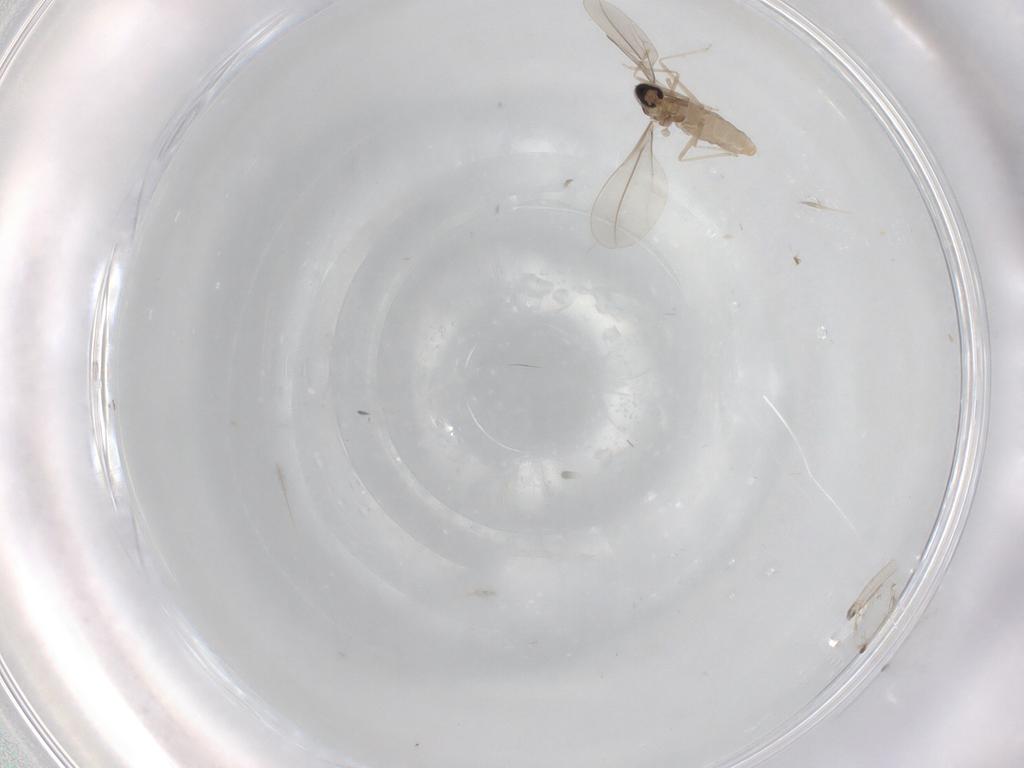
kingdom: Animalia
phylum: Arthropoda
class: Insecta
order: Diptera
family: Cecidomyiidae
